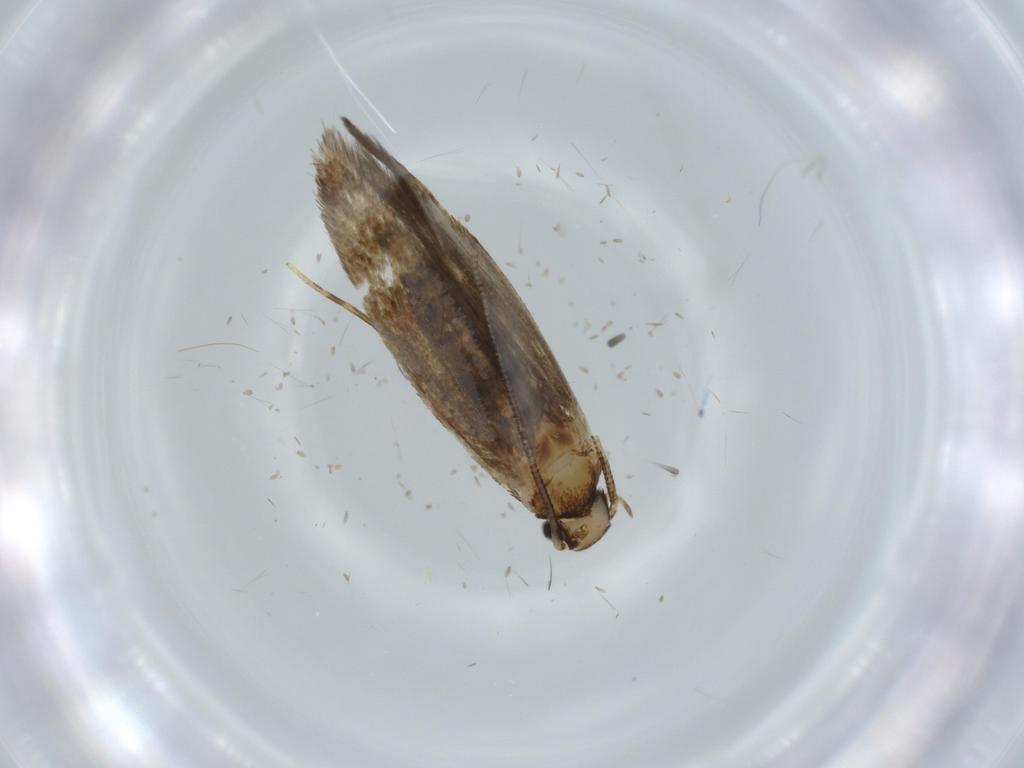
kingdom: Animalia
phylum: Arthropoda
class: Insecta
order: Lepidoptera
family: Tineidae
